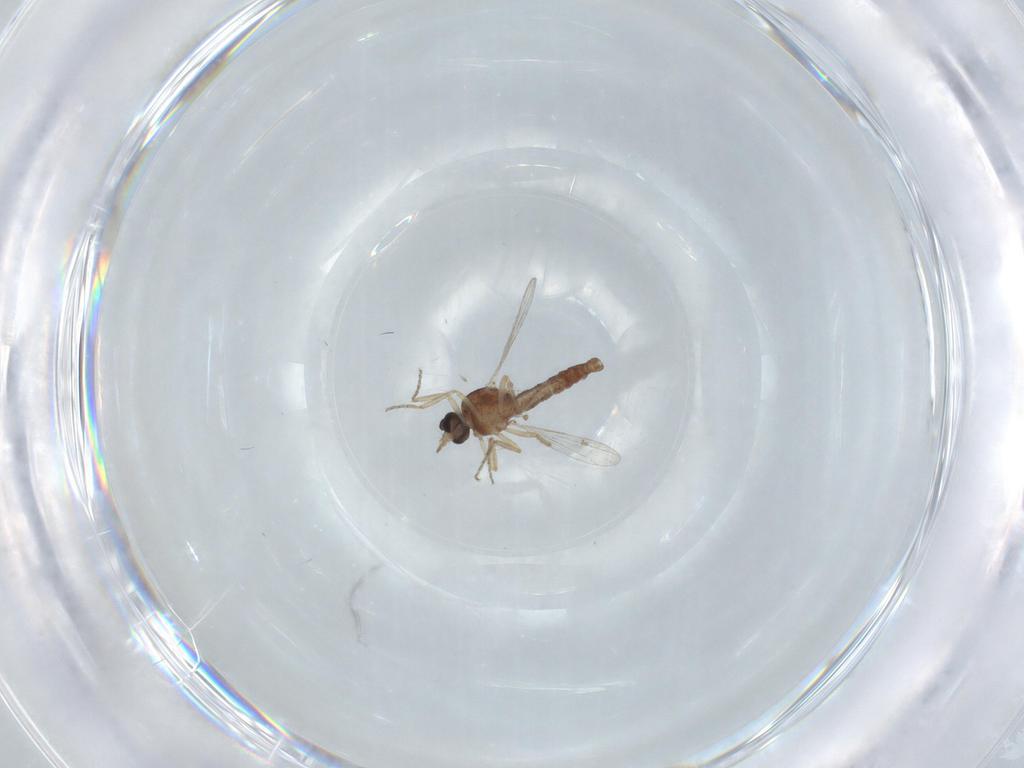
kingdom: Animalia
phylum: Arthropoda
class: Insecta
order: Diptera
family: Ceratopogonidae
